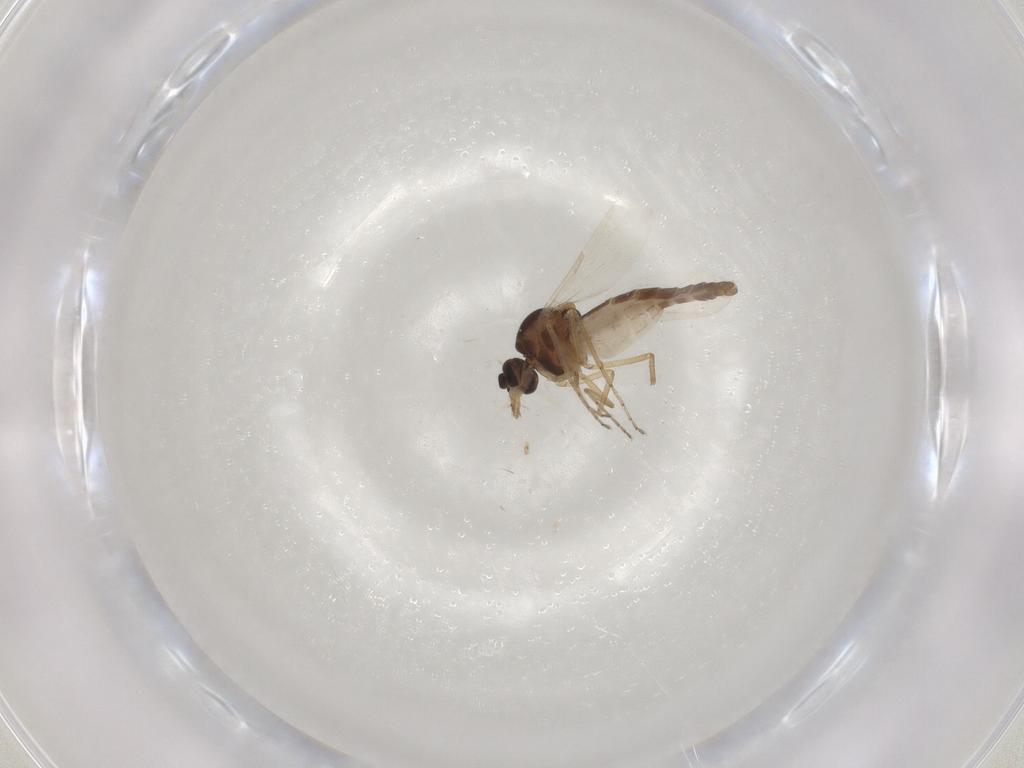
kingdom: Animalia
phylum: Arthropoda
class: Insecta
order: Diptera
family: Ceratopogonidae
